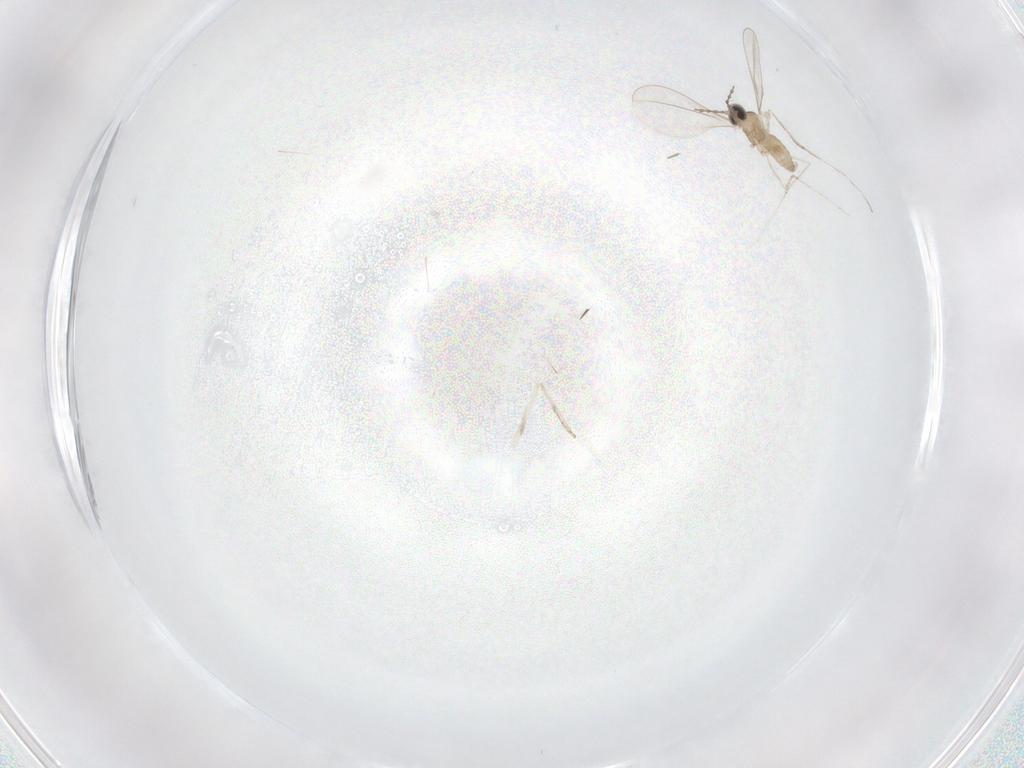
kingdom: Animalia
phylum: Arthropoda
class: Insecta
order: Diptera
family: Cecidomyiidae
